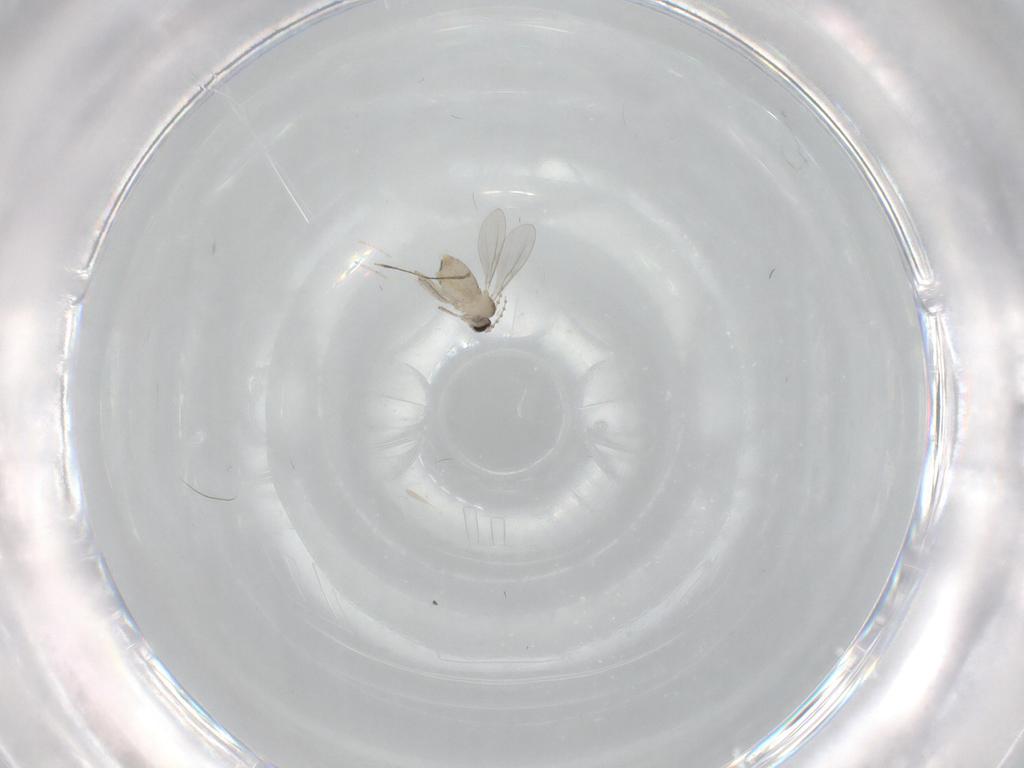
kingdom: Animalia
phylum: Arthropoda
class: Insecta
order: Diptera
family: Cecidomyiidae
